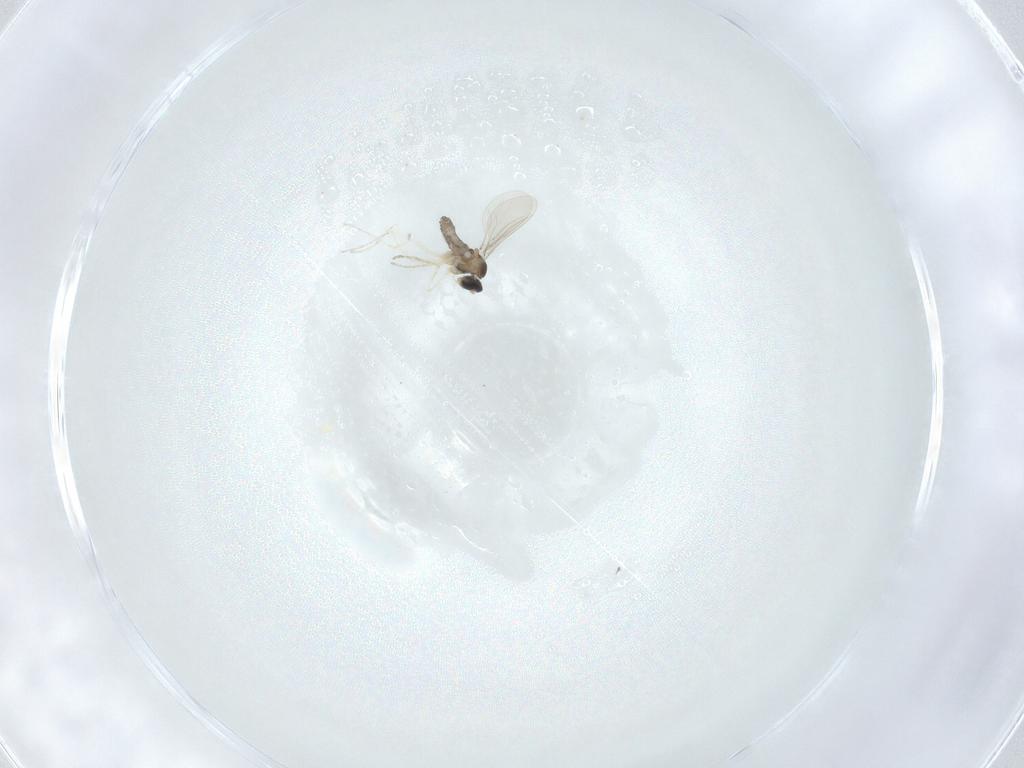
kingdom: Animalia
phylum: Arthropoda
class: Insecta
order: Diptera
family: Cecidomyiidae
